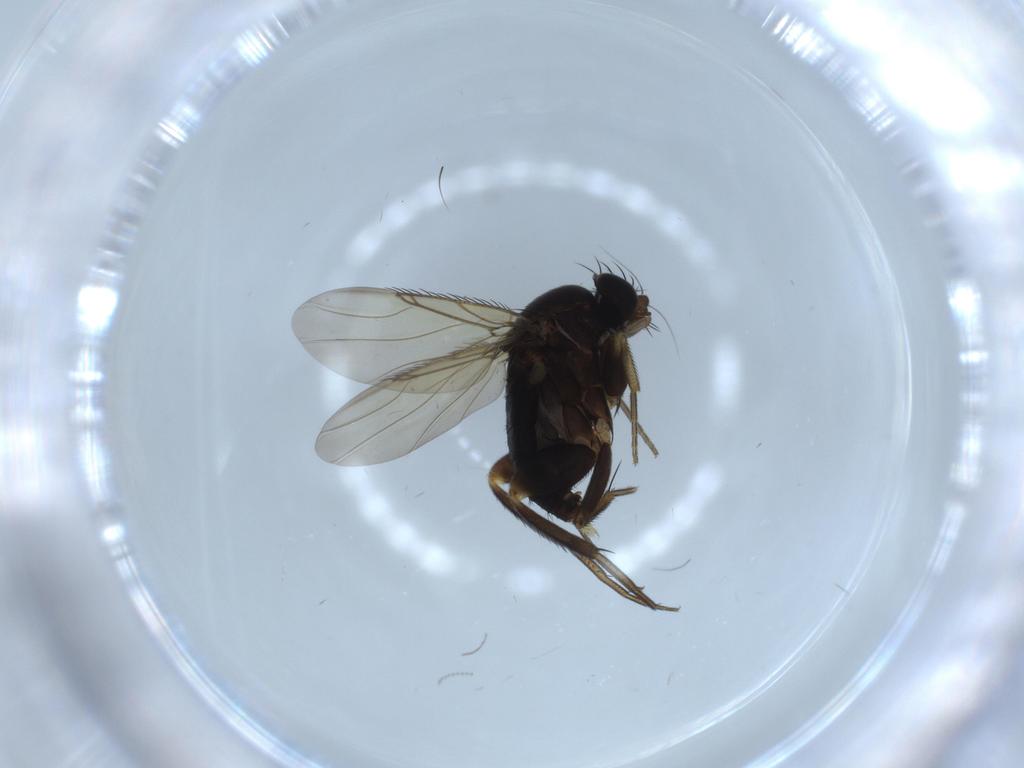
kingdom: Animalia
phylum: Arthropoda
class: Insecta
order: Diptera
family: Phoridae
